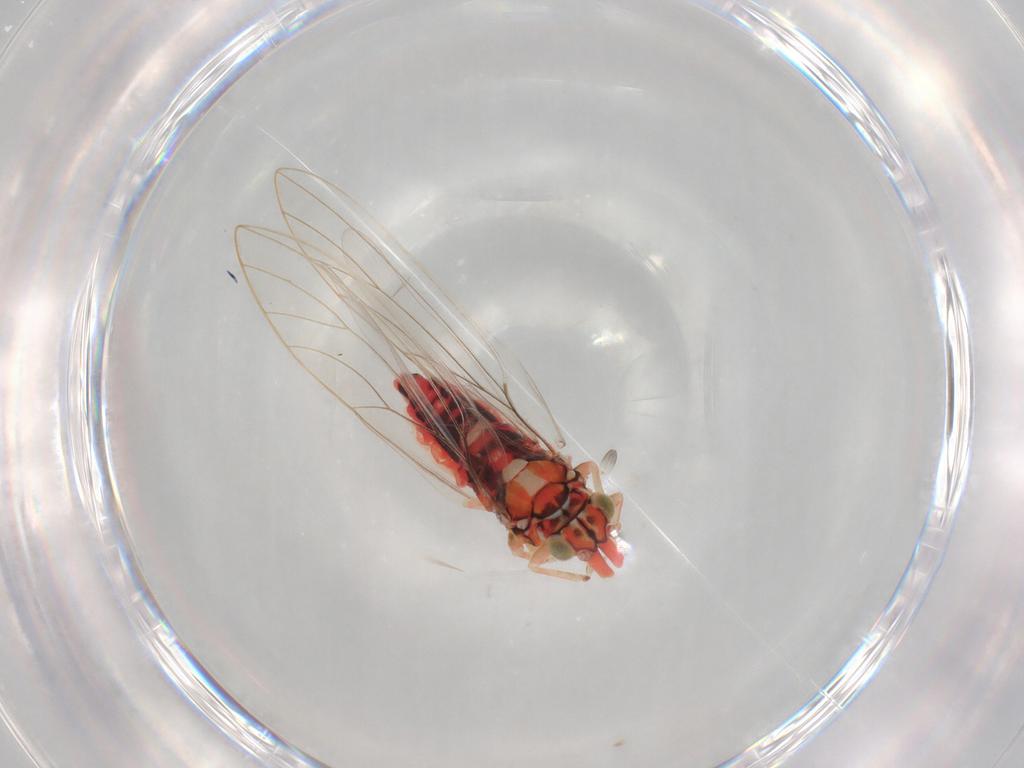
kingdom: Animalia
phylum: Arthropoda
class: Insecta
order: Hemiptera
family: Aphalaridae
